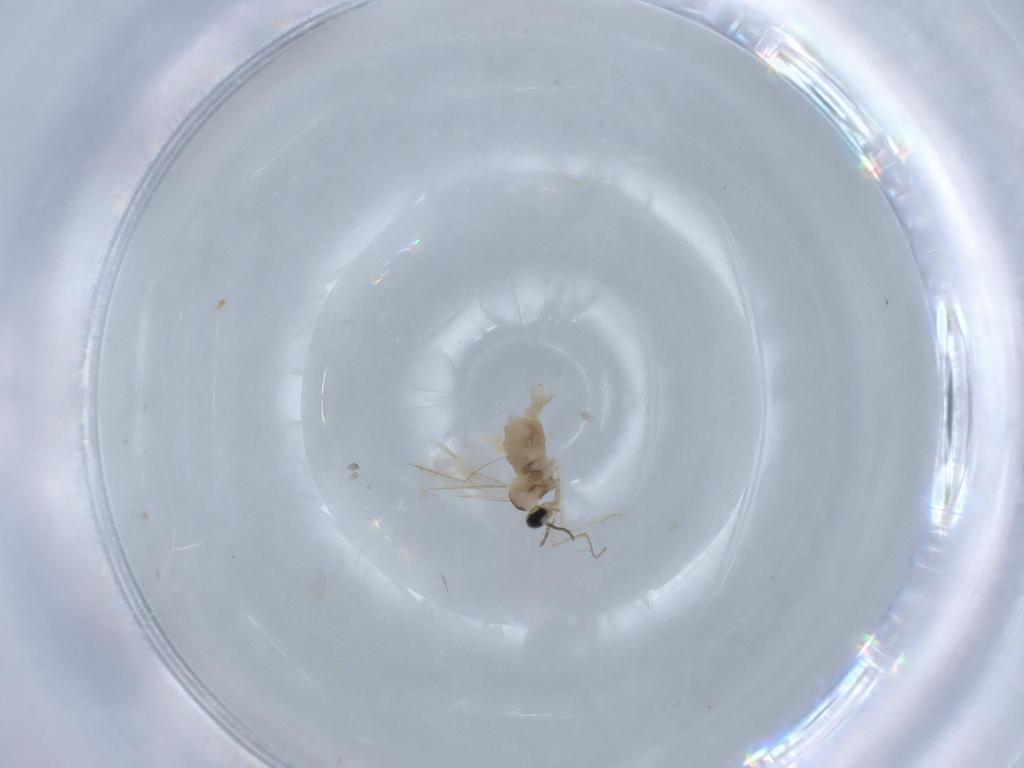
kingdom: Animalia
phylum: Arthropoda
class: Insecta
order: Diptera
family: Cecidomyiidae
